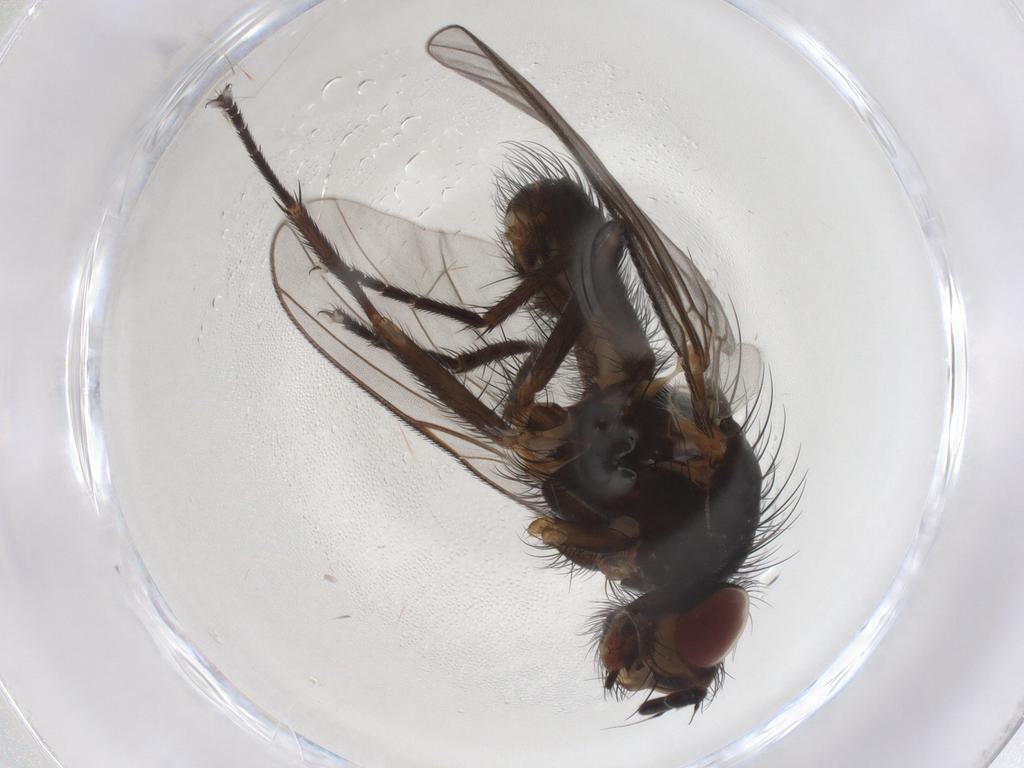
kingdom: Animalia
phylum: Arthropoda
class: Insecta
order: Diptera
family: Anthomyiidae
